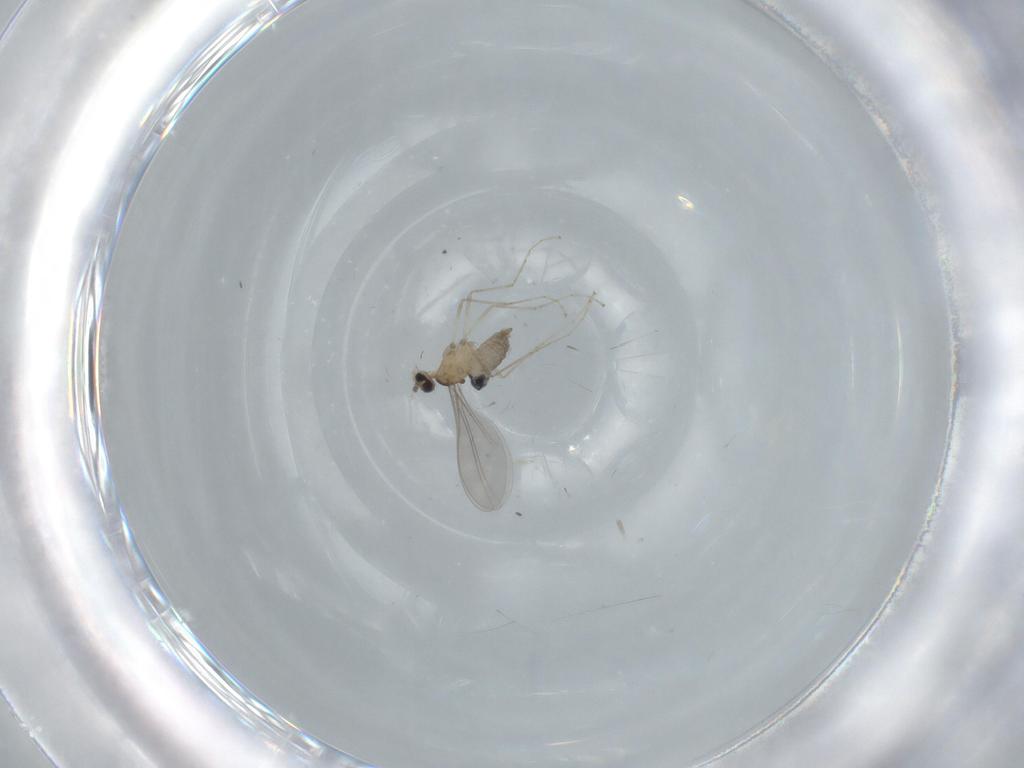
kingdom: Animalia
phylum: Arthropoda
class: Insecta
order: Diptera
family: Cecidomyiidae
